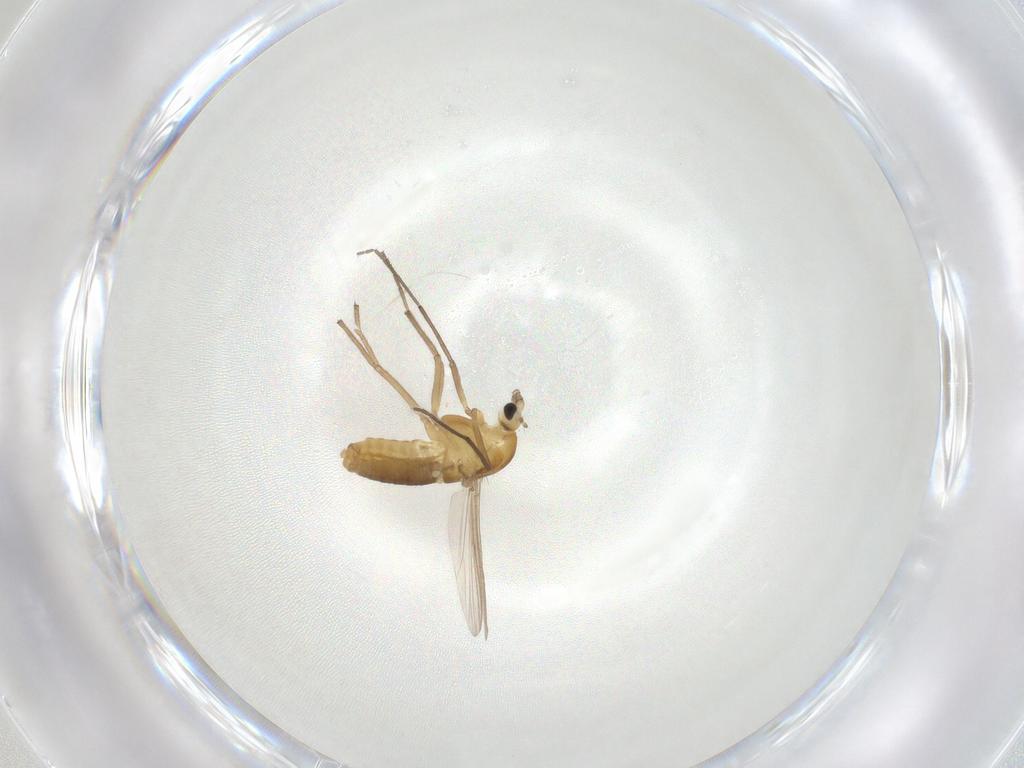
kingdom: Animalia
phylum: Arthropoda
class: Insecta
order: Diptera
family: Chironomidae
